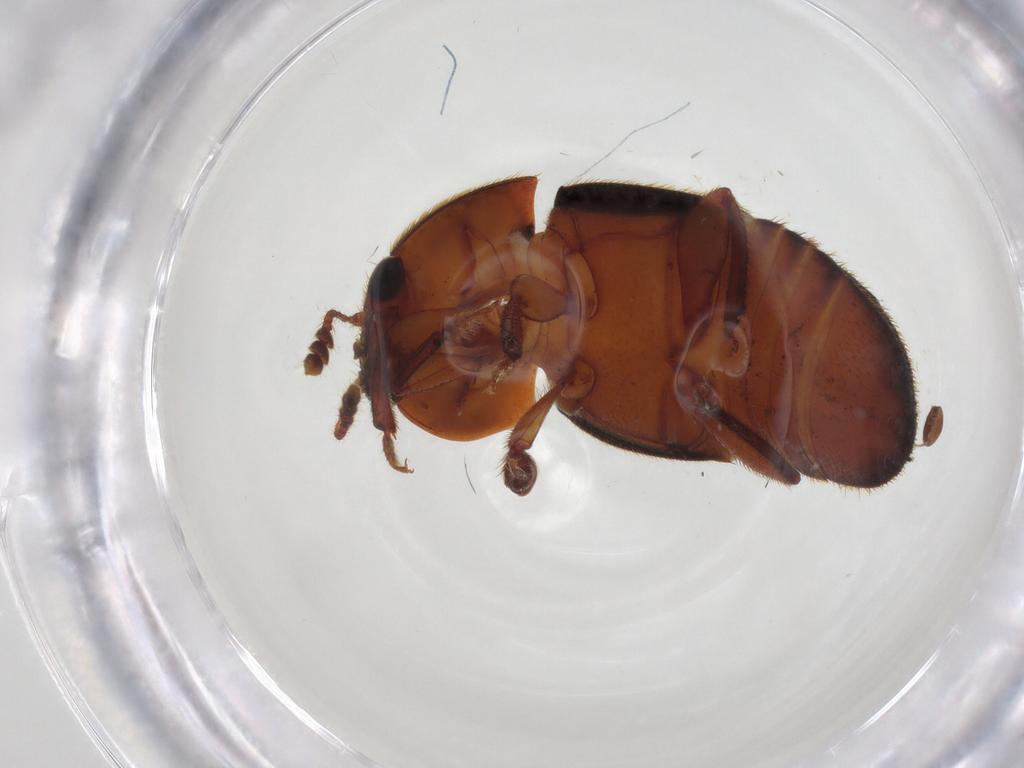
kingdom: Animalia
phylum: Arthropoda
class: Insecta
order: Coleoptera
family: Nitidulidae
